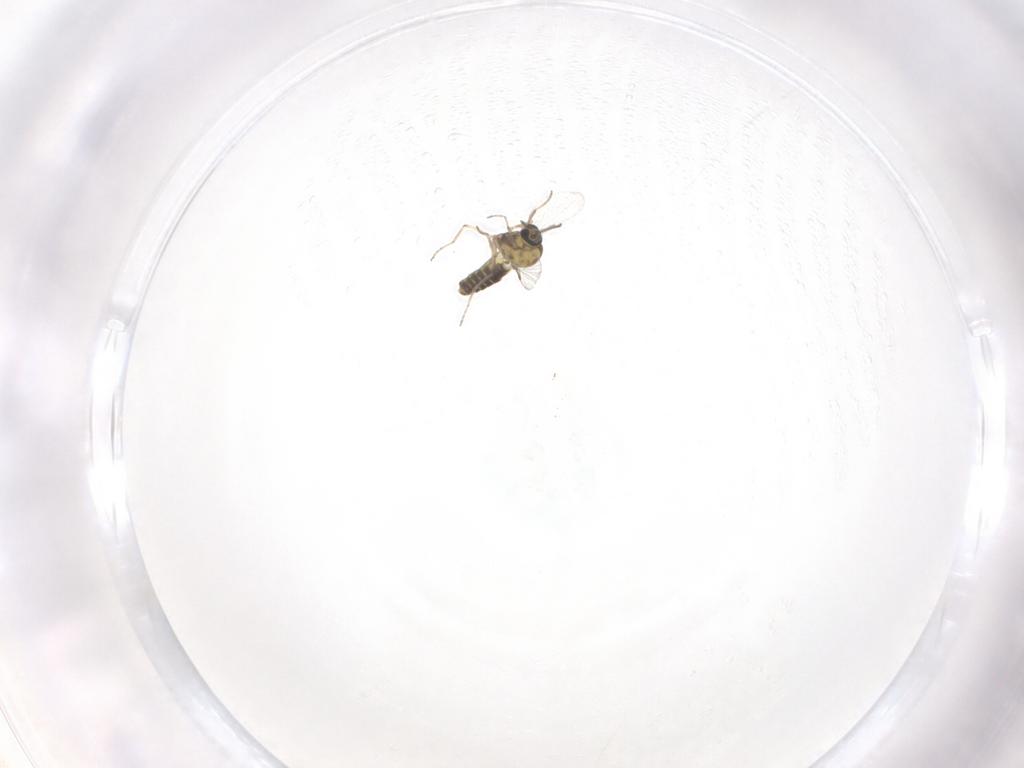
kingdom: Animalia
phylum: Arthropoda
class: Insecta
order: Diptera
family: Ceratopogonidae
